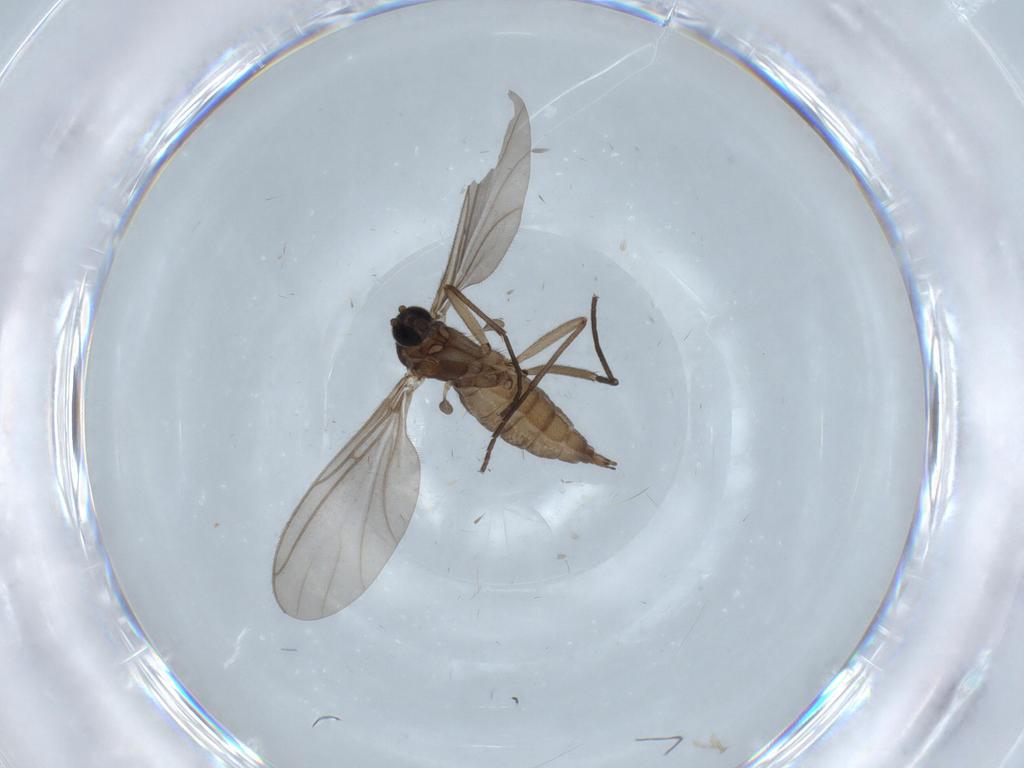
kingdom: Animalia
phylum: Arthropoda
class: Insecta
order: Diptera
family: Sciaridae
